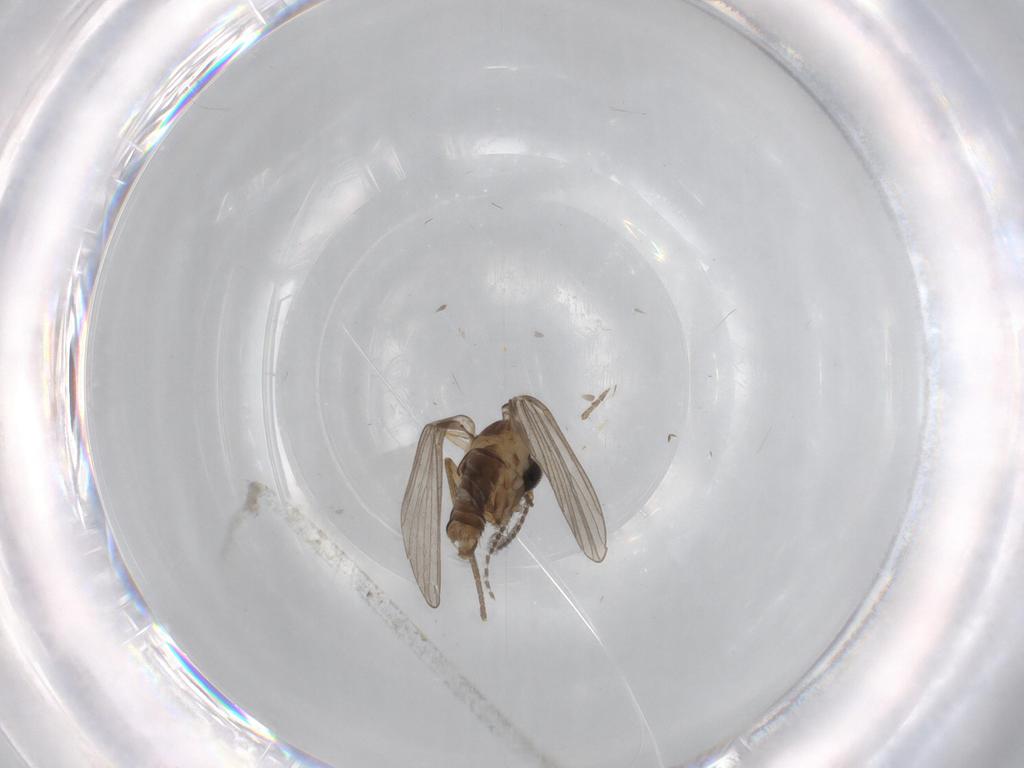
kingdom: Animalia
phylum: Arthropoda
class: Insecta
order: Diptera
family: Psychodidae
